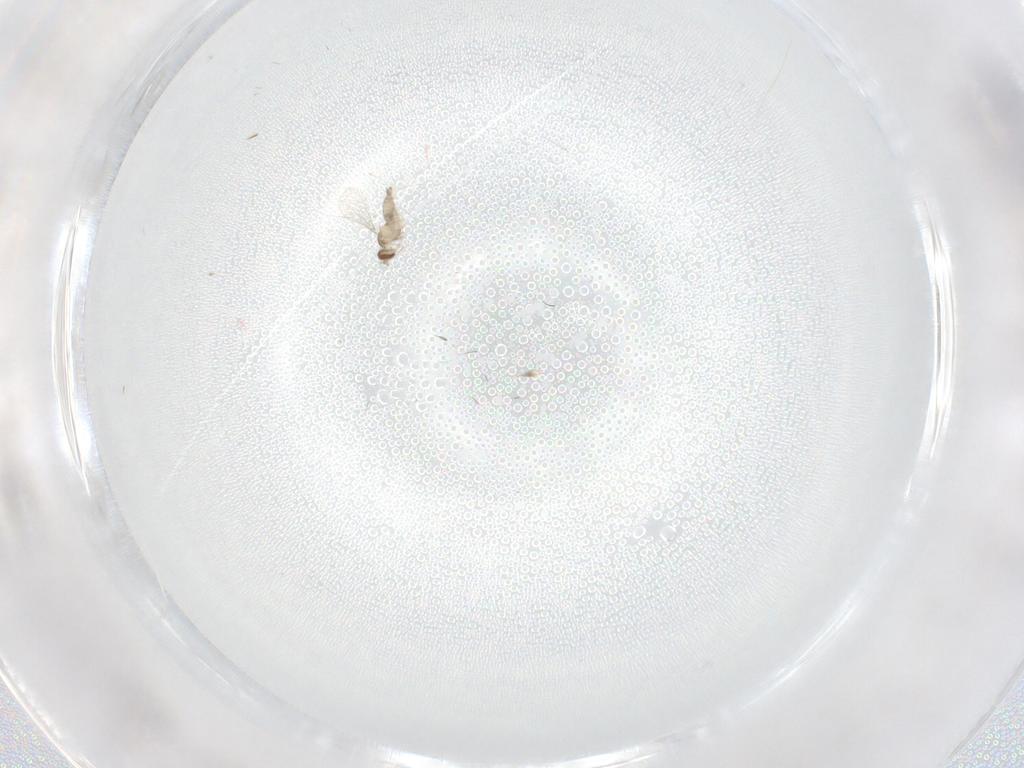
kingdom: Animalia
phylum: Arthropoda
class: Insecta
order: Diptera
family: Cecidomyiidae
